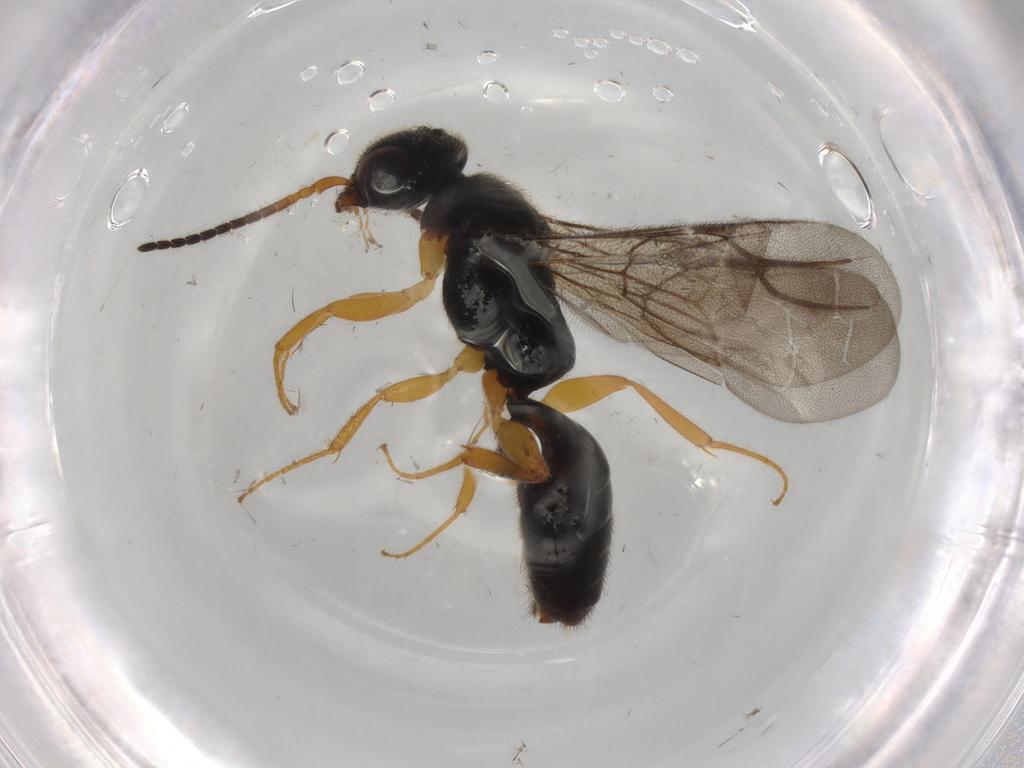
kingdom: Animalia
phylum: Arthropoda
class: Insecta
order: Hymenoptera
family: Bethylidae
